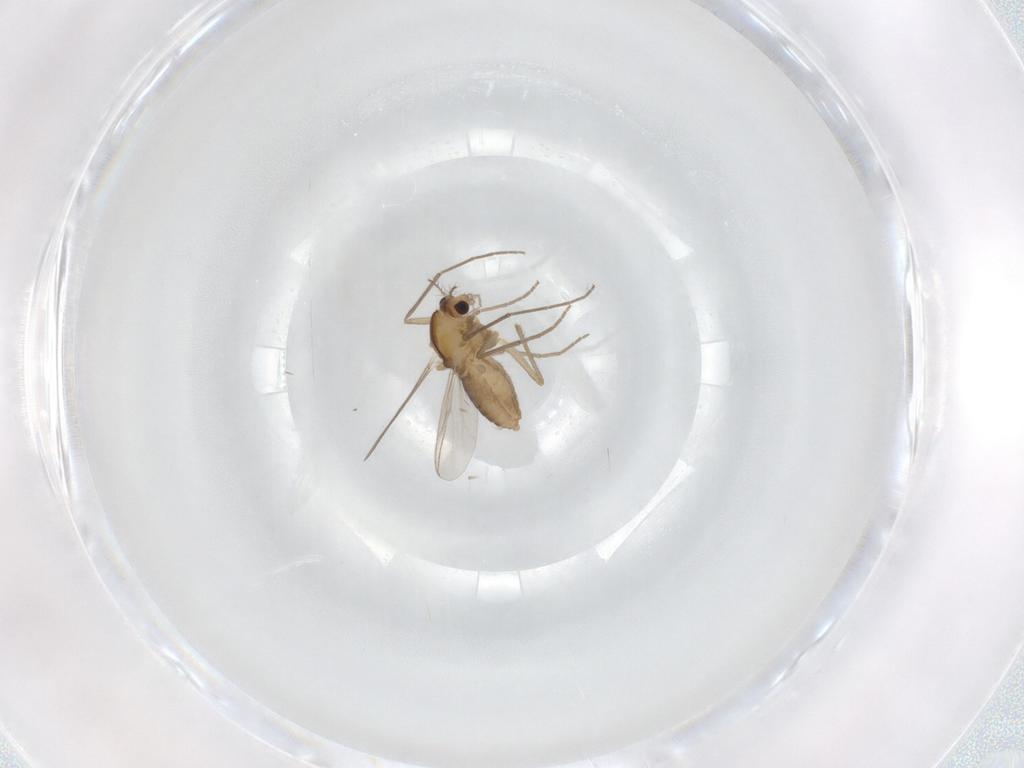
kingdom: Animalia
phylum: Arthropoda
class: Insecta
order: Diptera
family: Chironomidae
